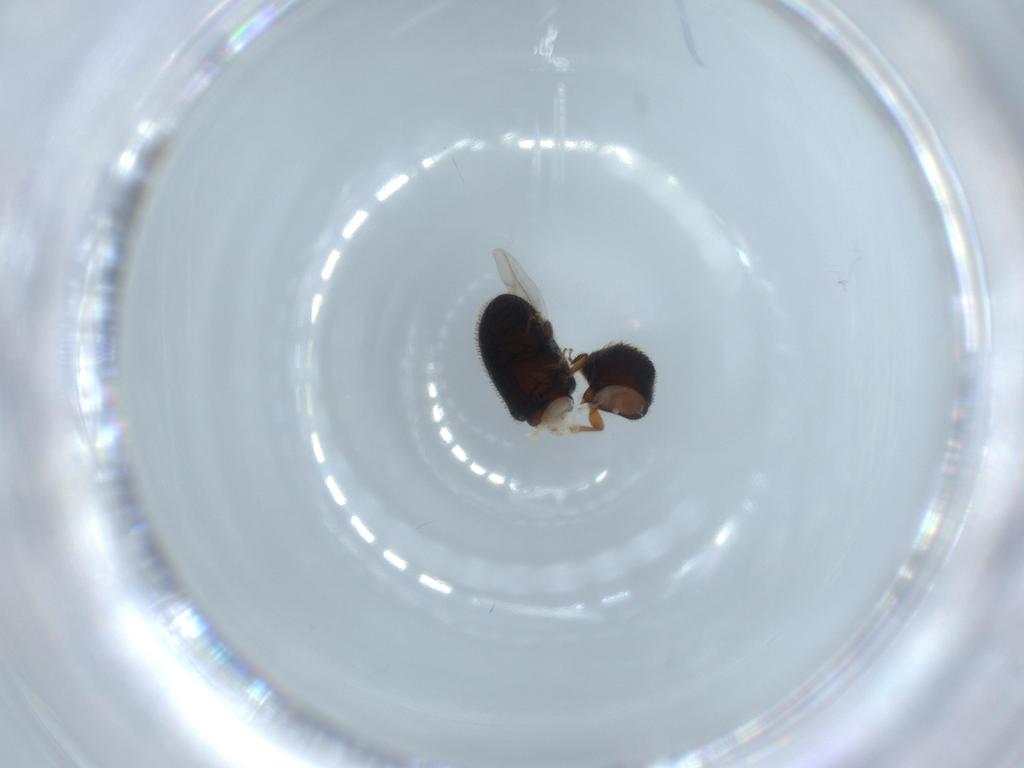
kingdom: Animalia
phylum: Arthropoda
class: Insecta
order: Coleoptera
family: Curculionidae
